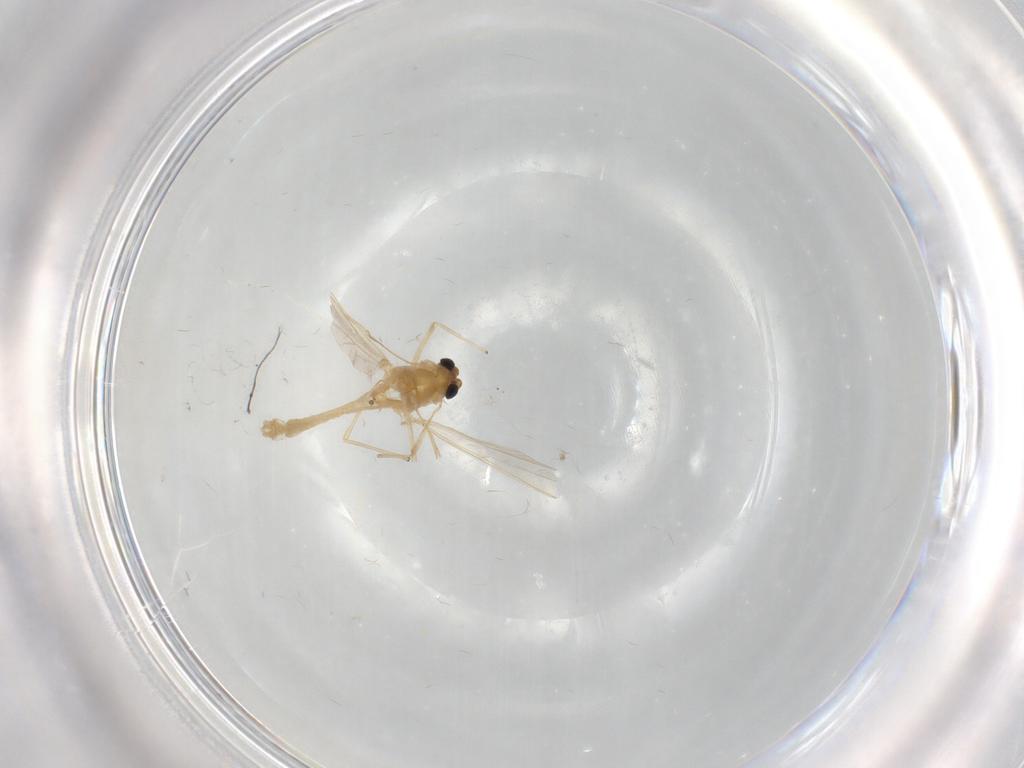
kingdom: Animalia
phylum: Arthropoda
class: Insecta
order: Diptera
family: Chironomidae
